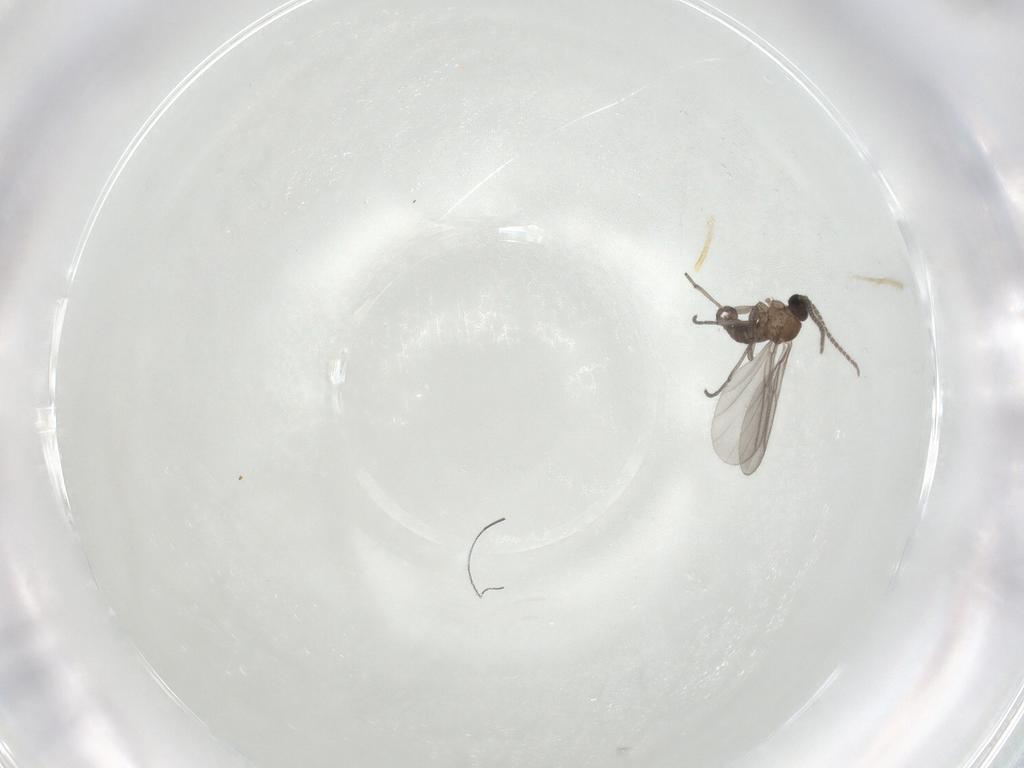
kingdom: Animalia
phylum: Arthropoda
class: Insecta
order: Diptera
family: Sciaridae
